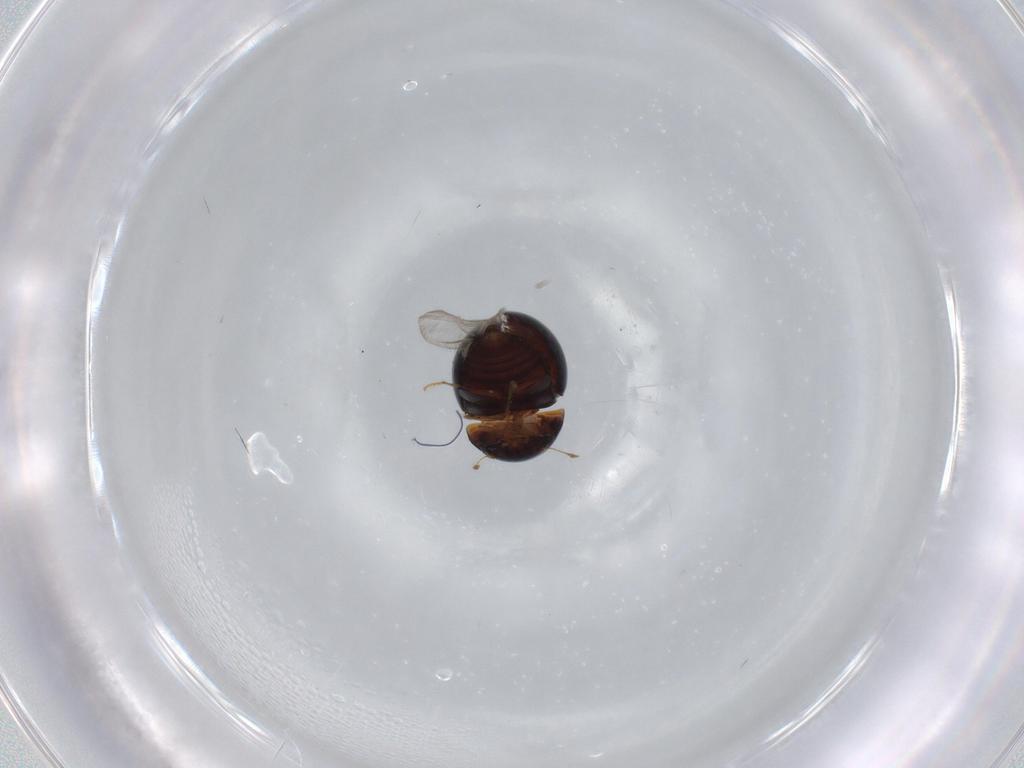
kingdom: Animalia
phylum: Arthropoda
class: Insecta
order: Coleoptera
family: Clambidae
